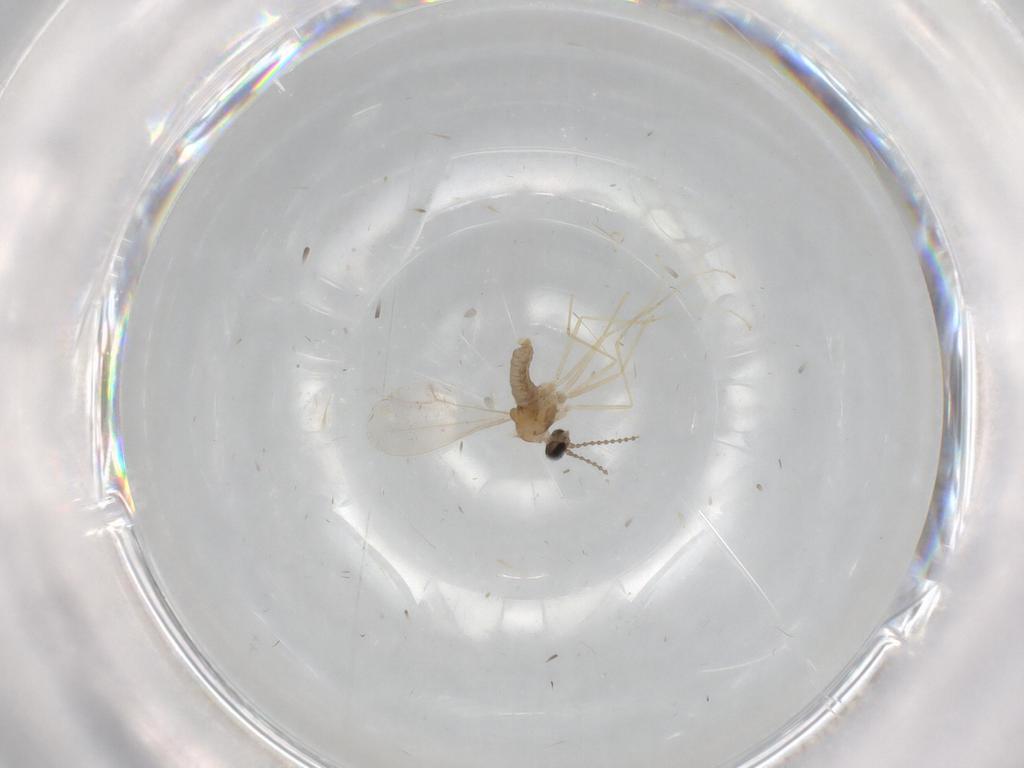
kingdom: Animalia
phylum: Arthropoda
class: Insecta
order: Diptera
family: Cecidomyiidae
